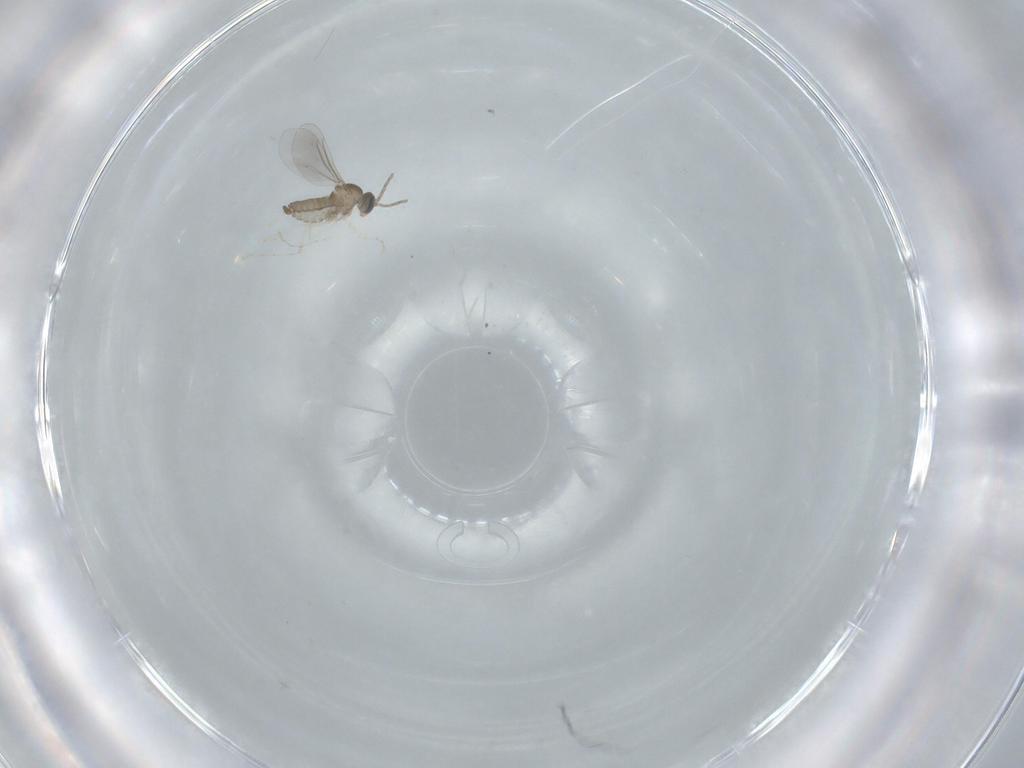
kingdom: Animalia
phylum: Arthropoda
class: Insecta
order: Diptera
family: Cecidomyiidae
